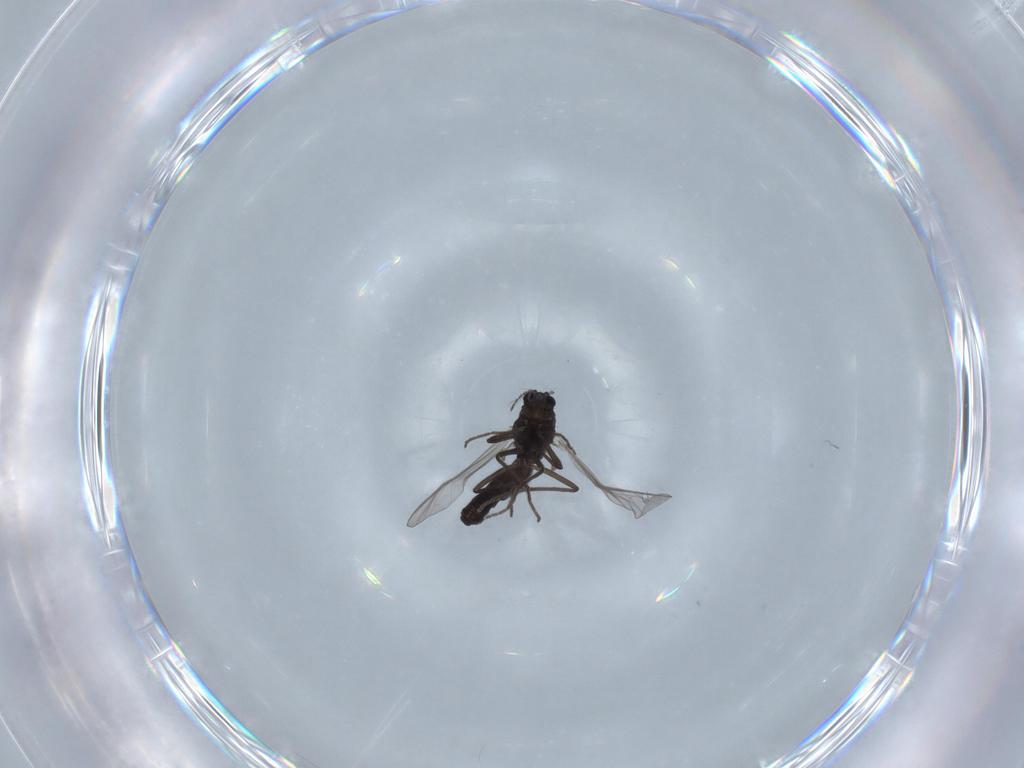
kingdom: Animalia
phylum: Arthropoda
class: Insecta
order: Diptera
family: Chironomidae
